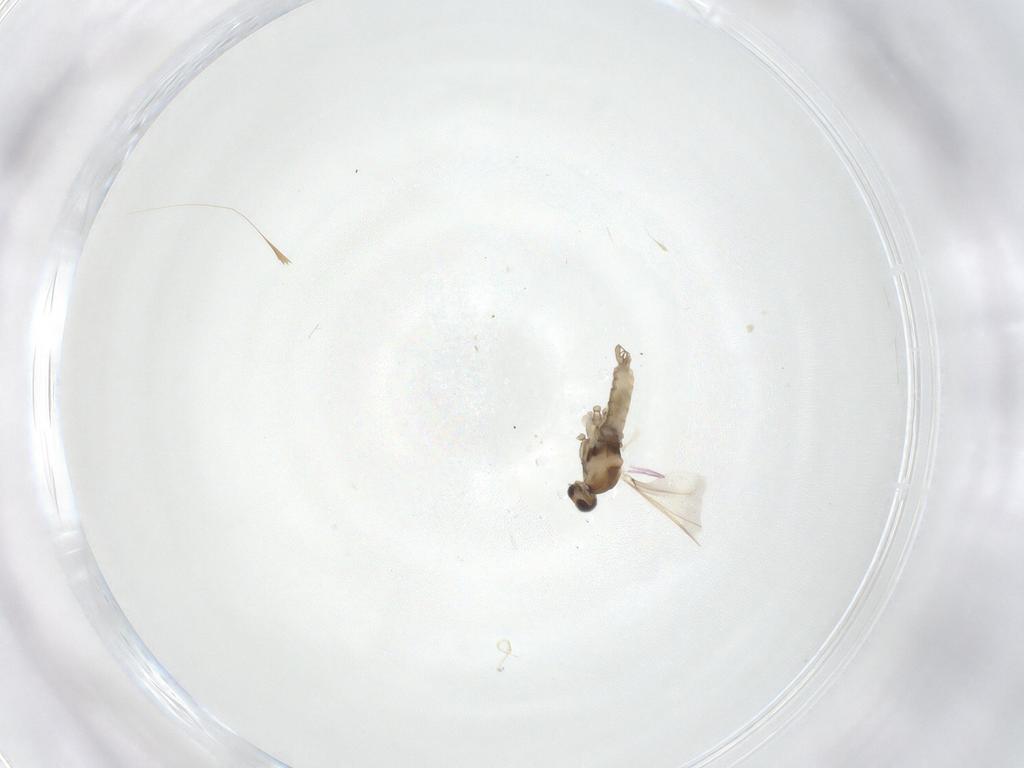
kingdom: Animalia
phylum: Arthropoda
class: Insecta
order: Diptera
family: Cecidomyiidae
